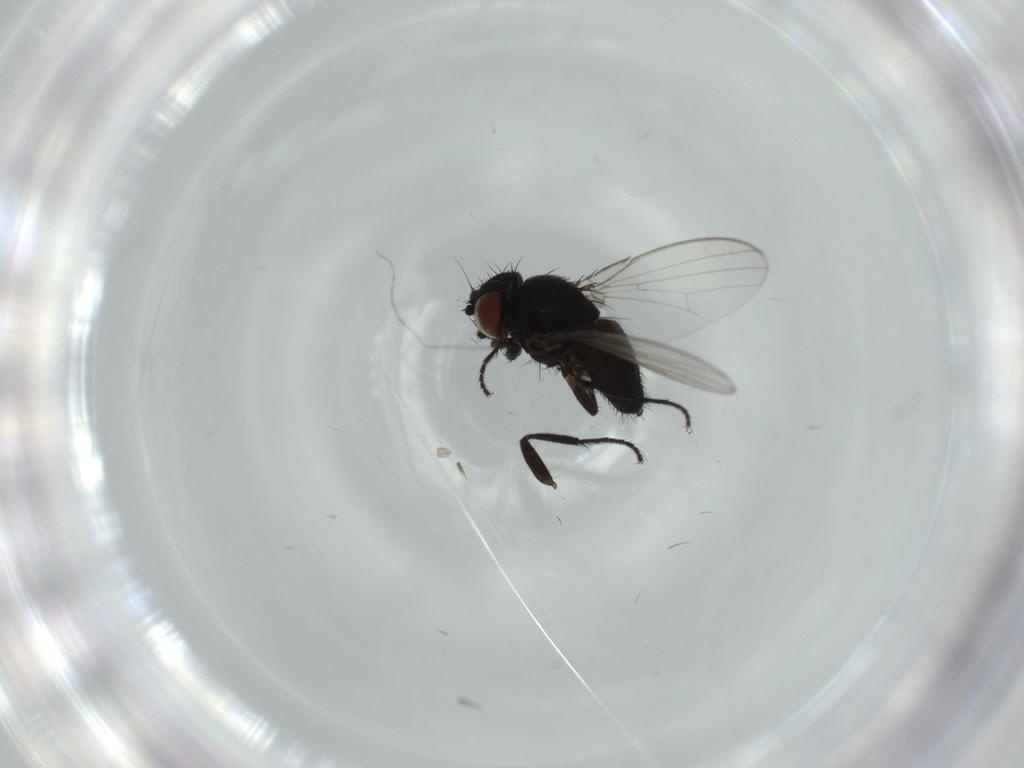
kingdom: Animalia
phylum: Arthropoda
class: Insecta
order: Diptera
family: Milichiidae
